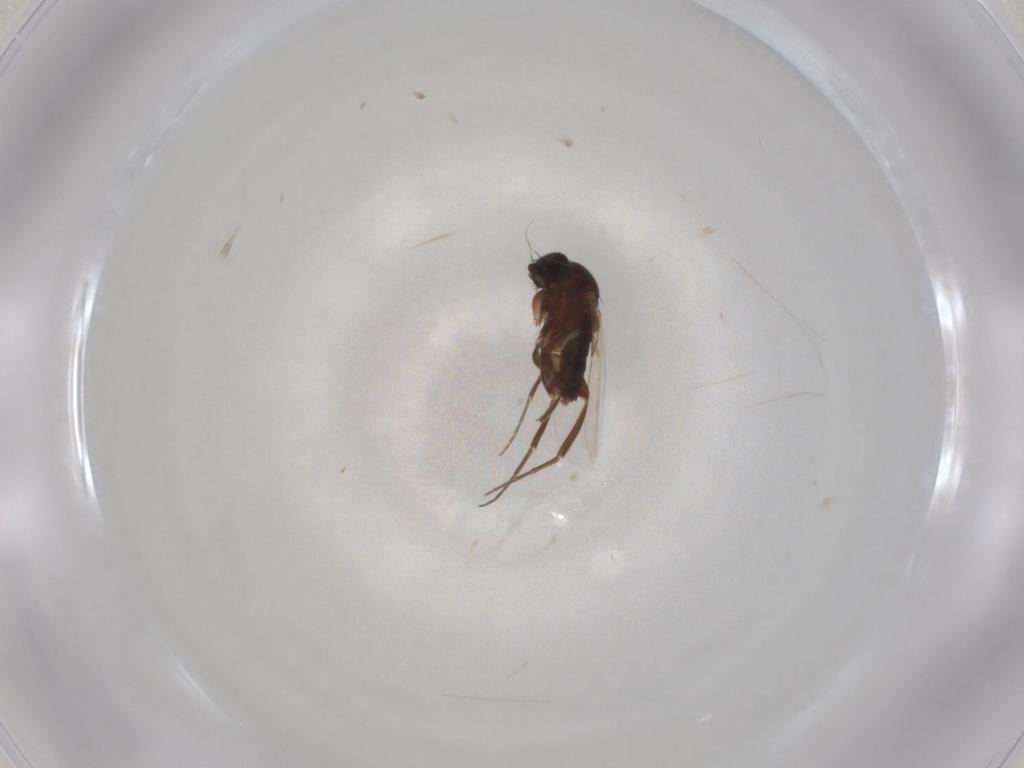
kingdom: Animalia
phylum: Arthropoda
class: Insecta
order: Diptera
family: Phoridae
